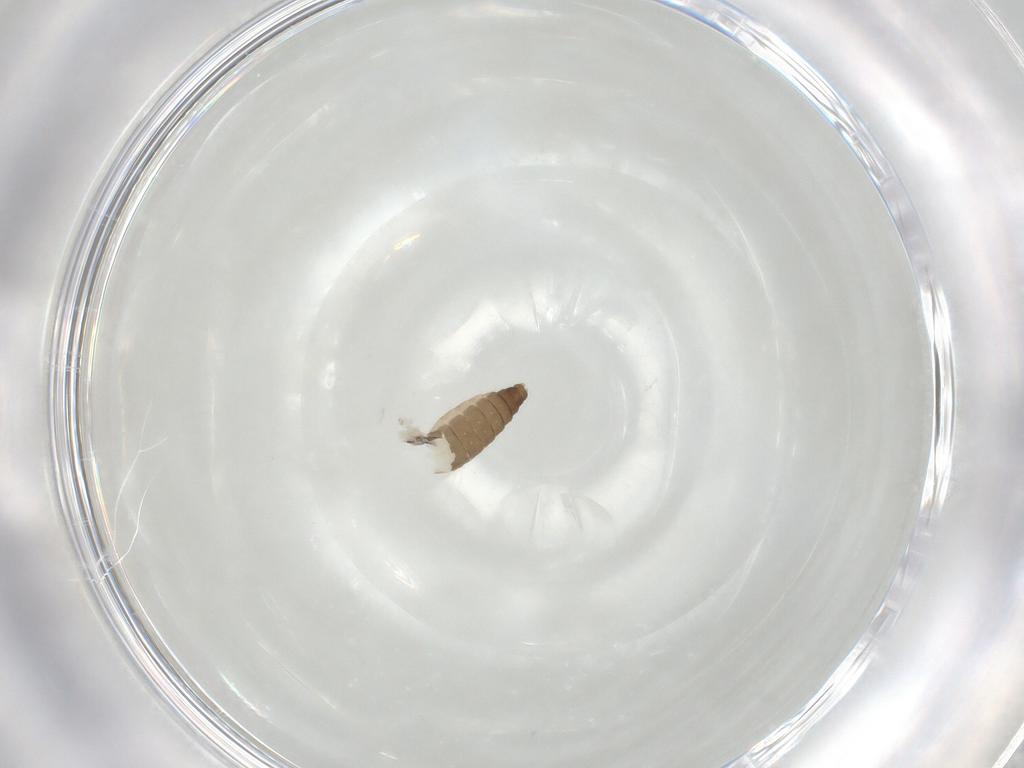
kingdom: Animalia
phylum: Arthropoda
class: Insecta
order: Diptera
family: Ceratopogonidae
